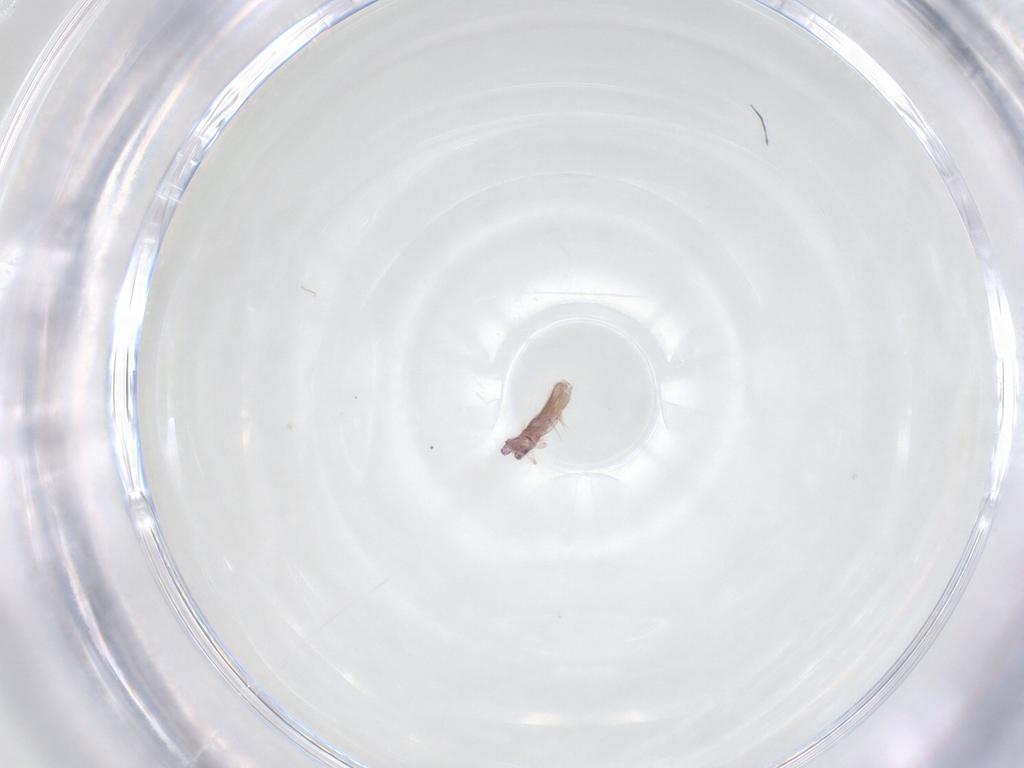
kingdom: Animalia
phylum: Arthropoda
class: Collembola
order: Entomobryomorpha
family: Entomobryidae
